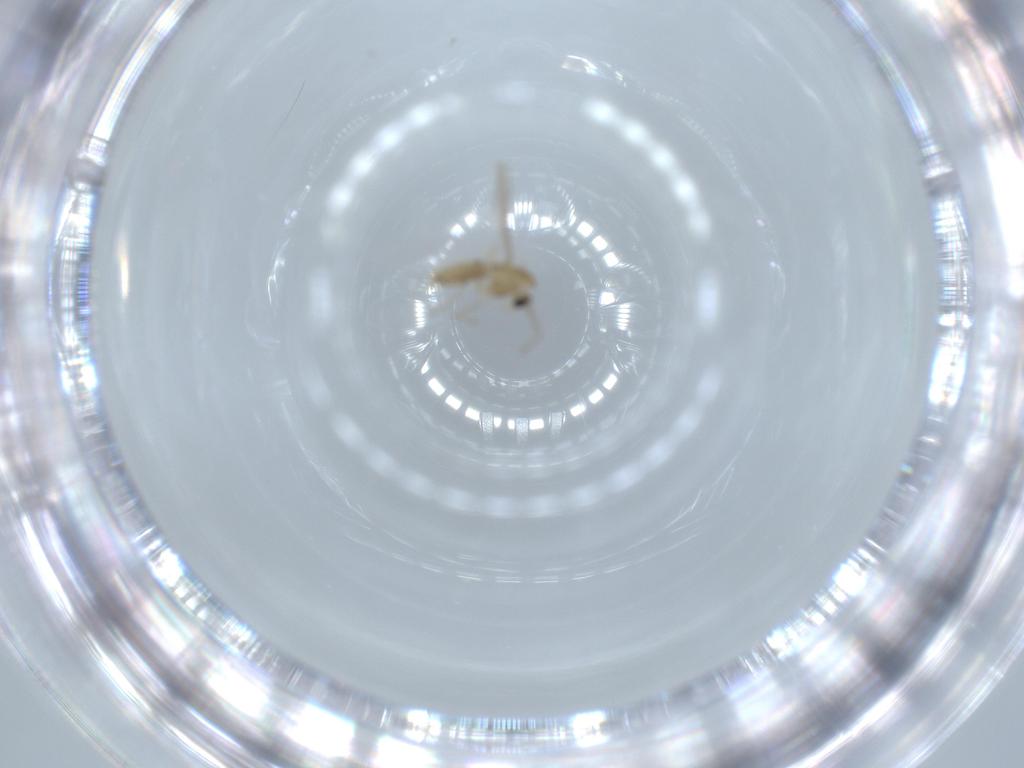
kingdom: Animalia
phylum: Arthropoda
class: Insecta
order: Diptera
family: Chironomidae
